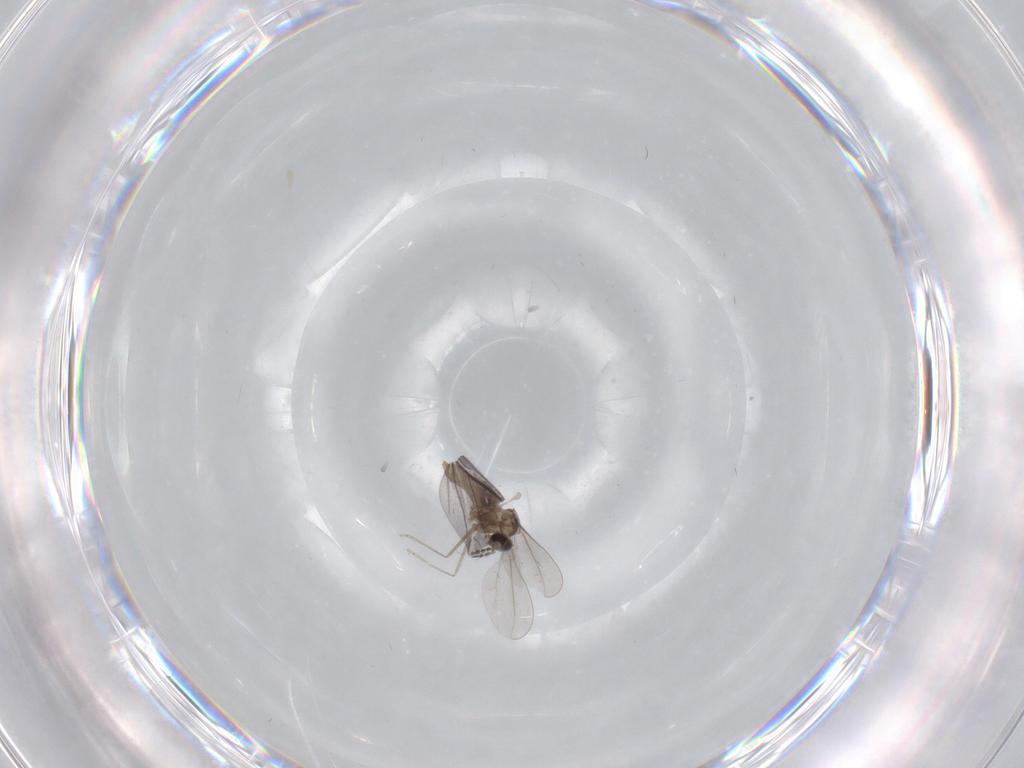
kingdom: Animalia
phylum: Arthropoda
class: Insecta
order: Diptera
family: Cecidomyiidae
